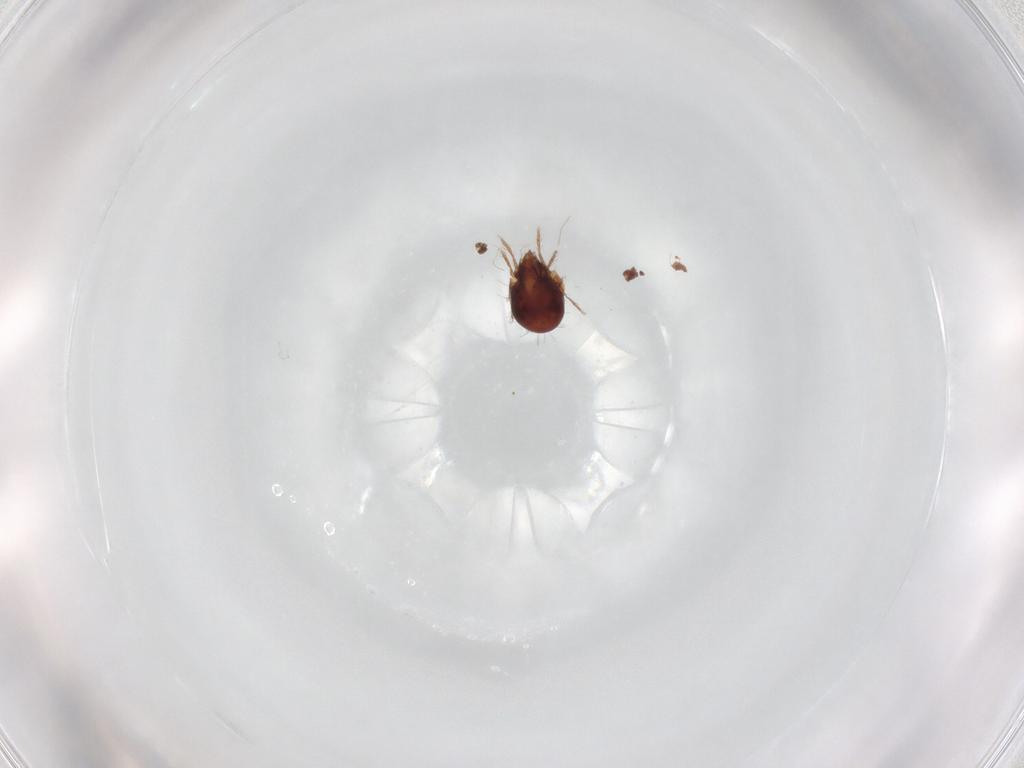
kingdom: Animalia
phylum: Arthropoda
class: Arachnida
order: Sarcoptiformes
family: Humerobatidae
